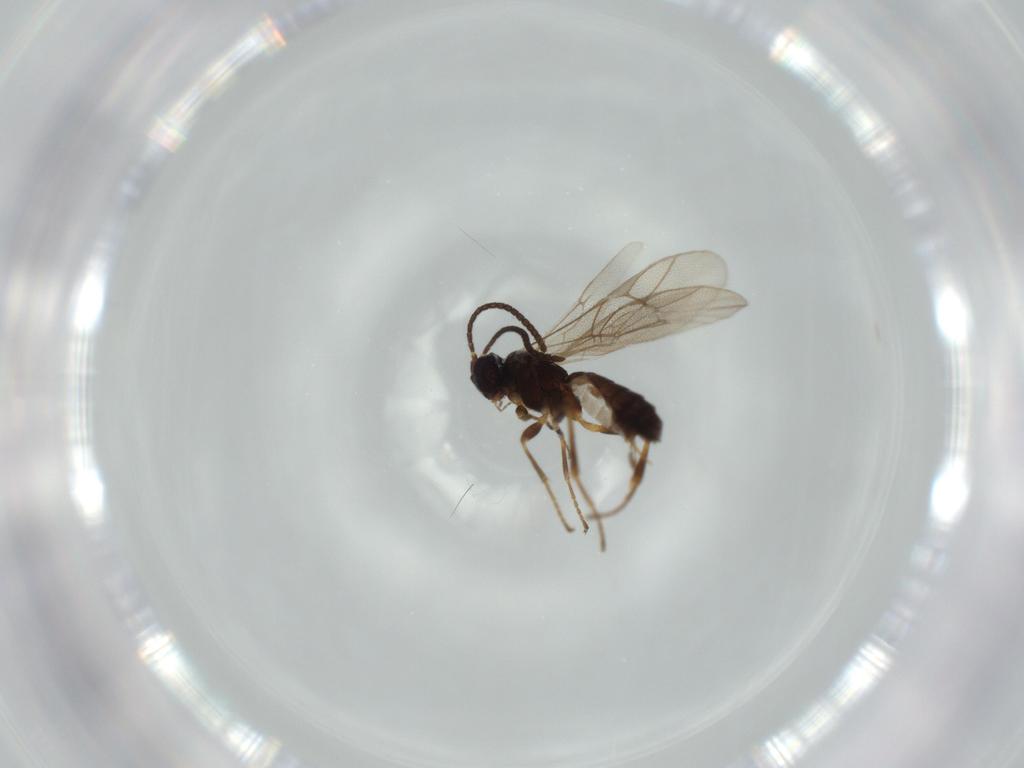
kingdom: Animalia
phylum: Arthropoda
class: Insecta
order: Hymenoptera
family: Ichneumonidae
